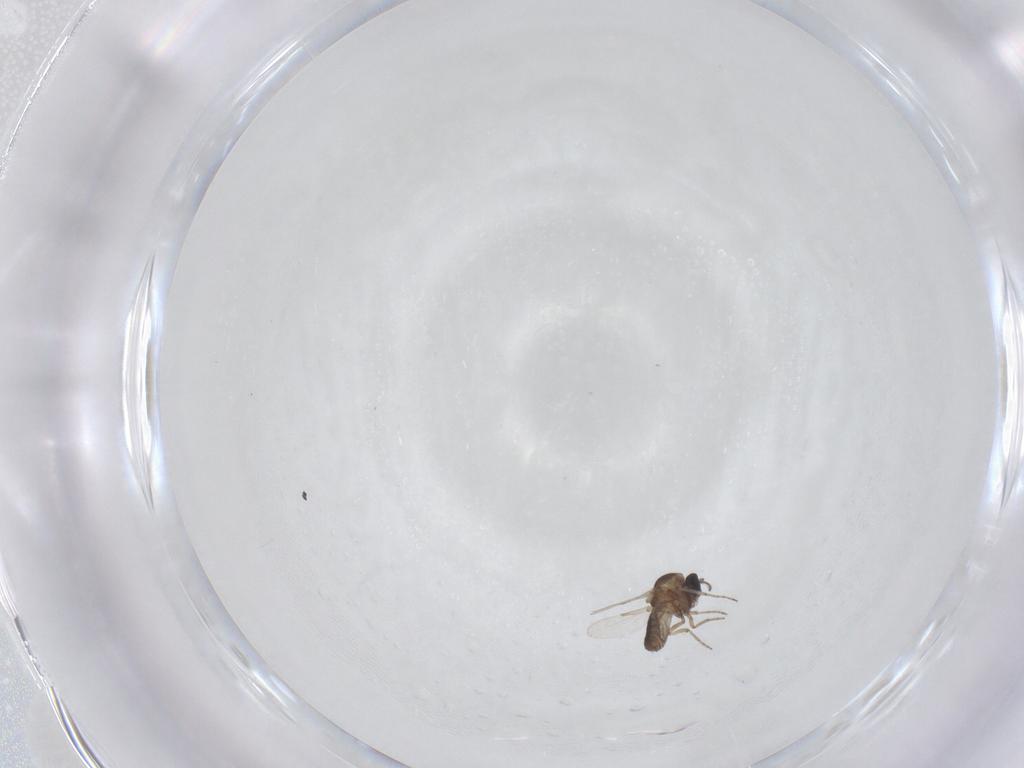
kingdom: Animalia
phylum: Arthropoda
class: Insecta
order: Diptera
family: Ceratopogonidae
